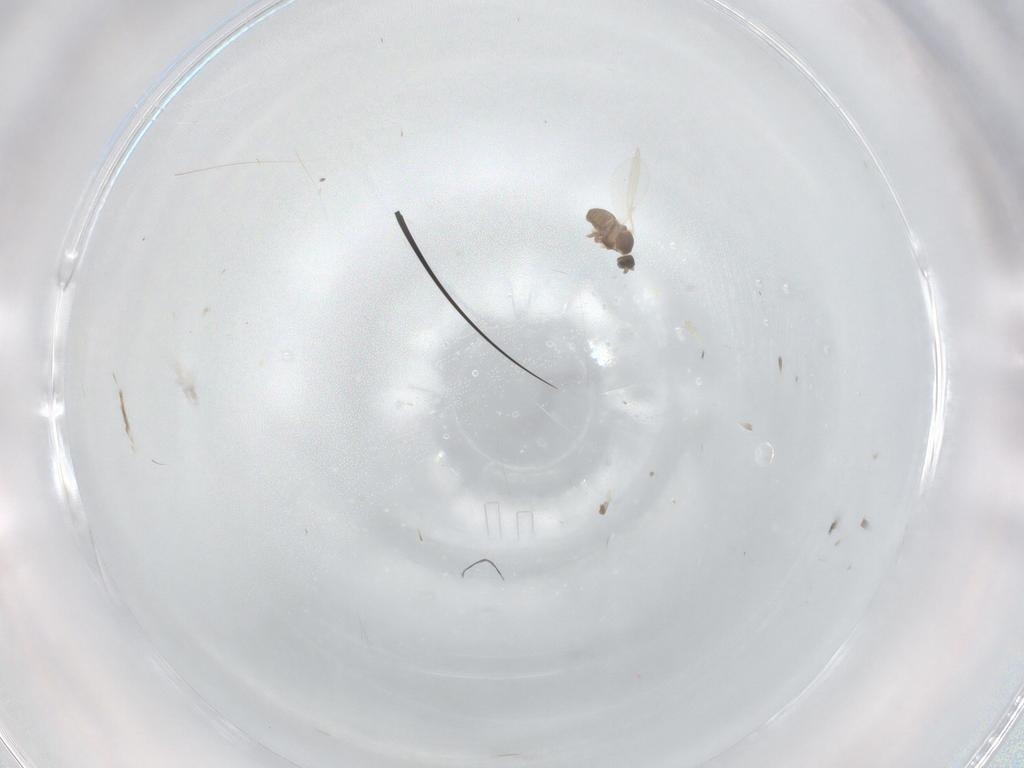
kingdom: Animalia
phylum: Arthropoda
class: Insecta
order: Diptera
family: Cecidomyiidae
